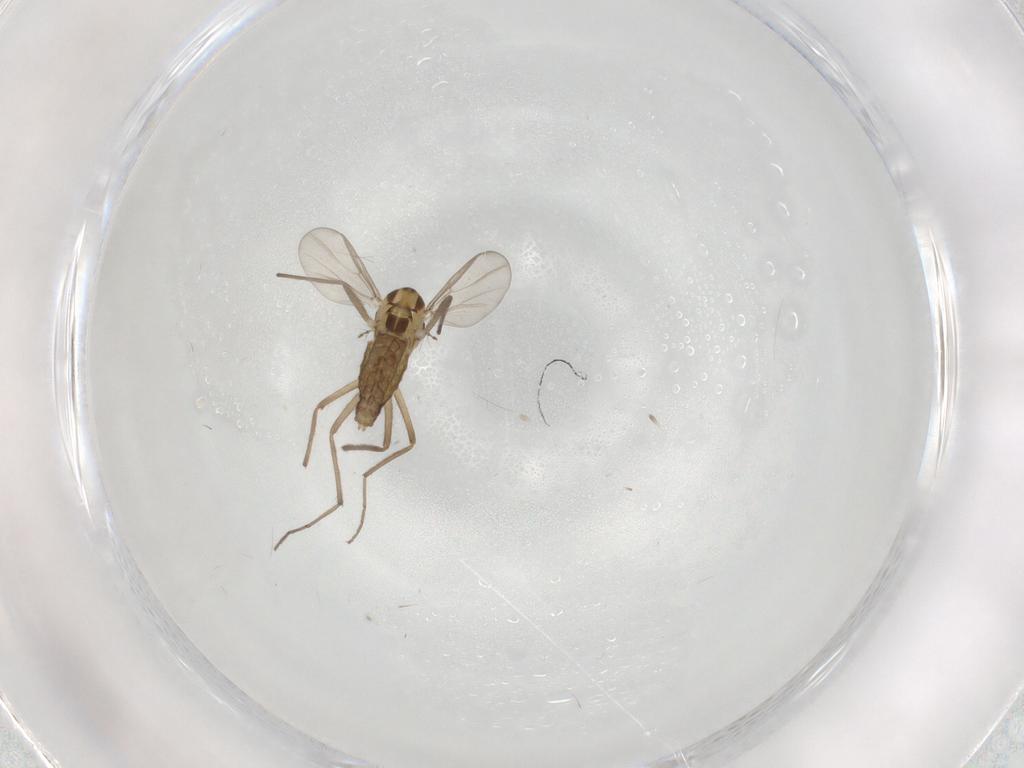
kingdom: Animalia
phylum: Arthropoda
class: Insecta
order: Diptera
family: Chironomidae
